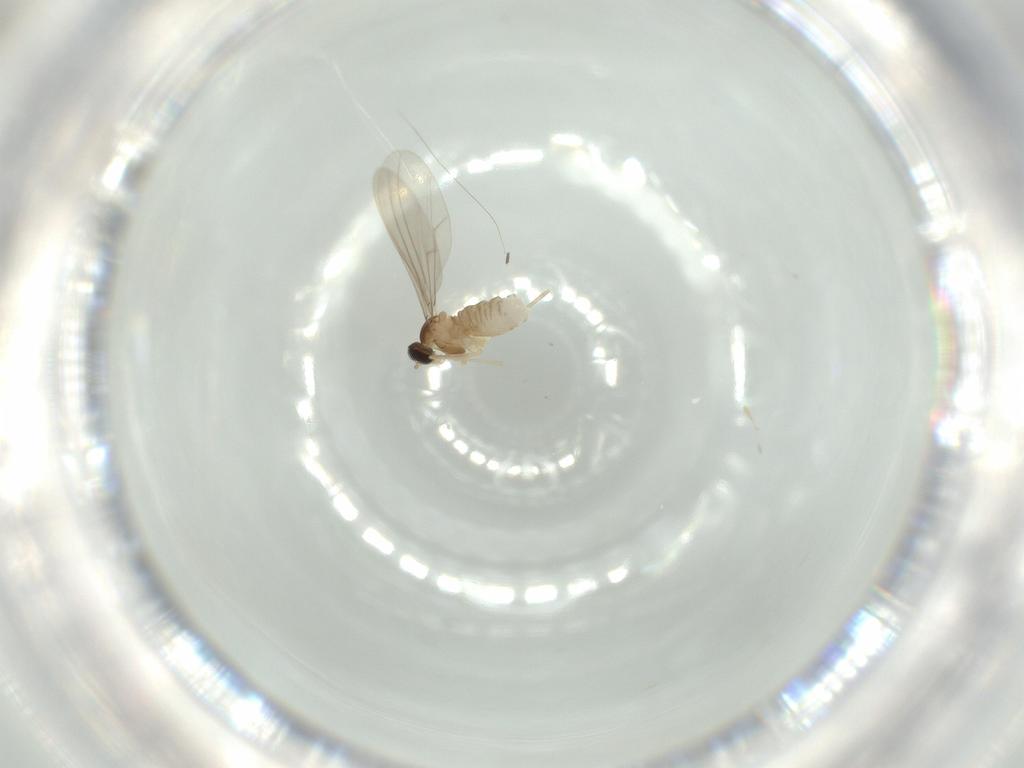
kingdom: Animalia
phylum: Arthropoda
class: Insecta
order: Diptera
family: Cecidomyiidae
